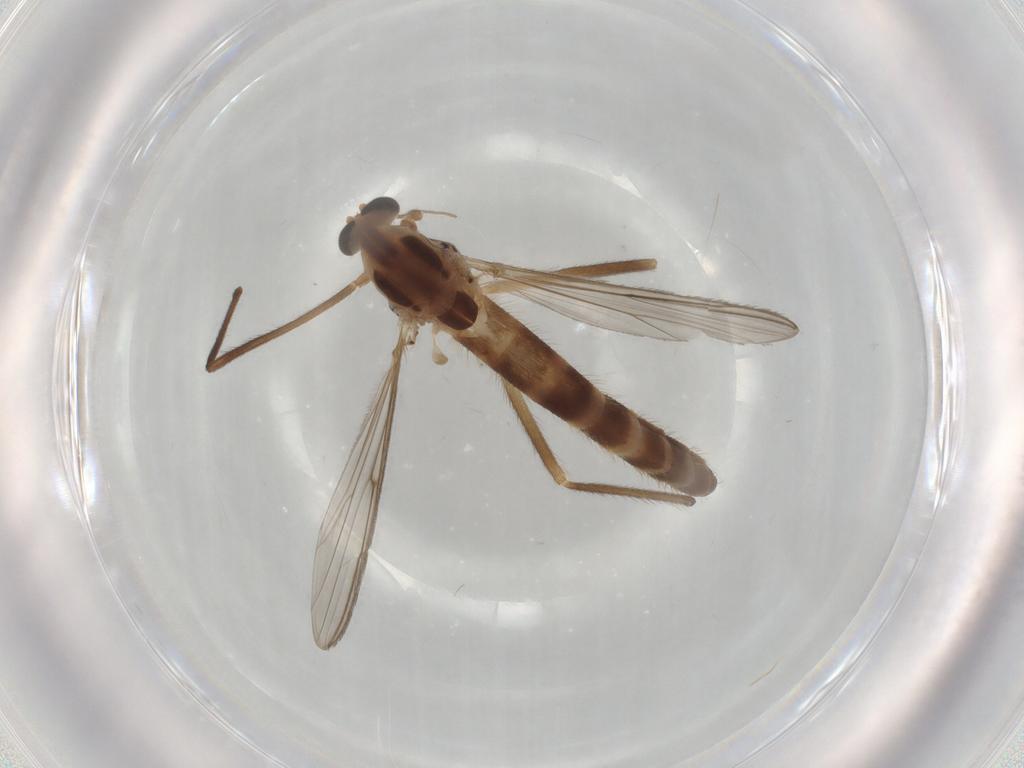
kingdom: Animalia
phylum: Arthropoda
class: Insecta
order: Diptera
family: Chironomidae
